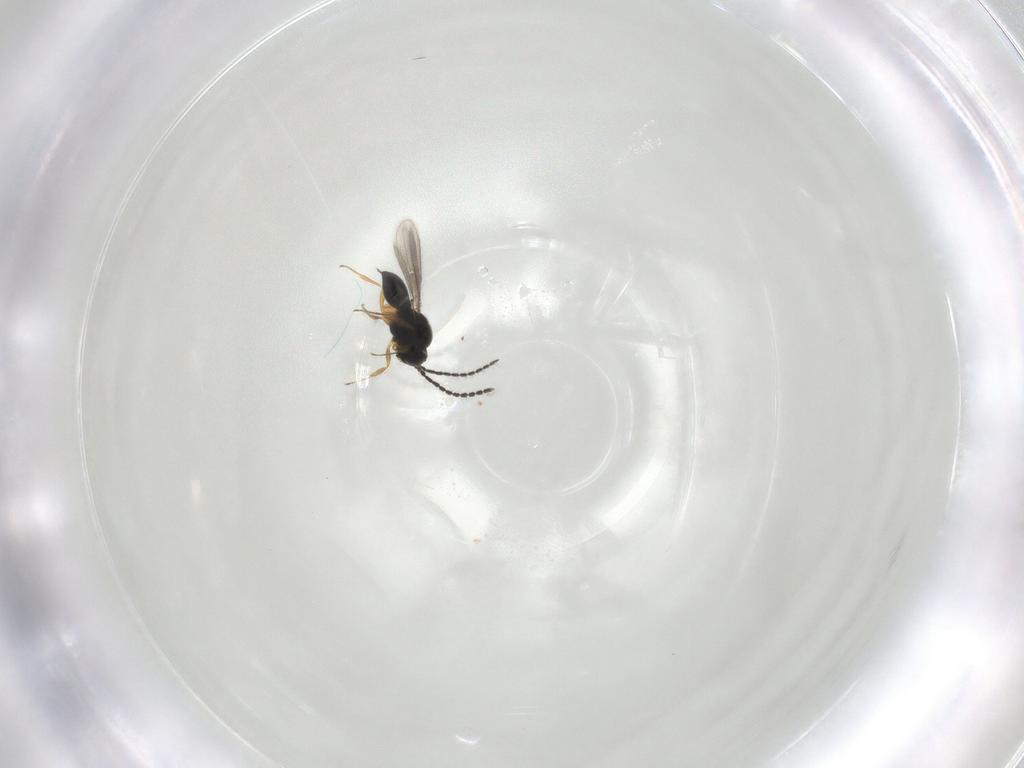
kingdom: Animalia
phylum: Arthropoda
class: Insecta
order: Hymenoptera
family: Scelionidae
